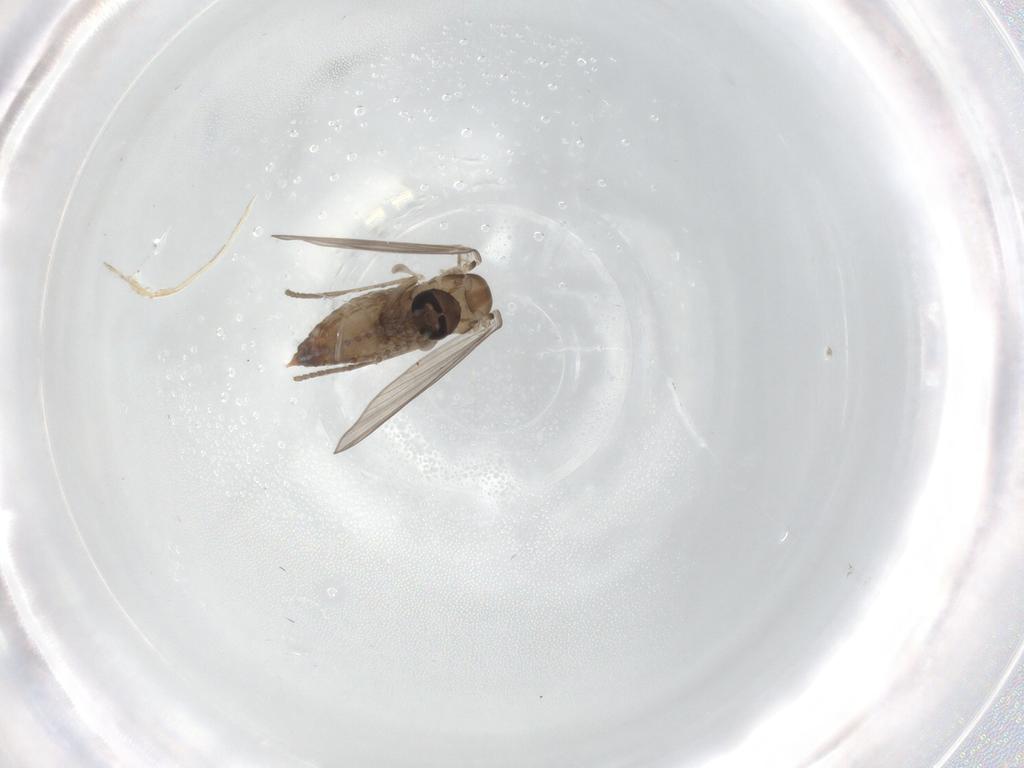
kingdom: Animalia
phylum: Arthropoda
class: Insecta
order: Diptera
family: Psychodidae
